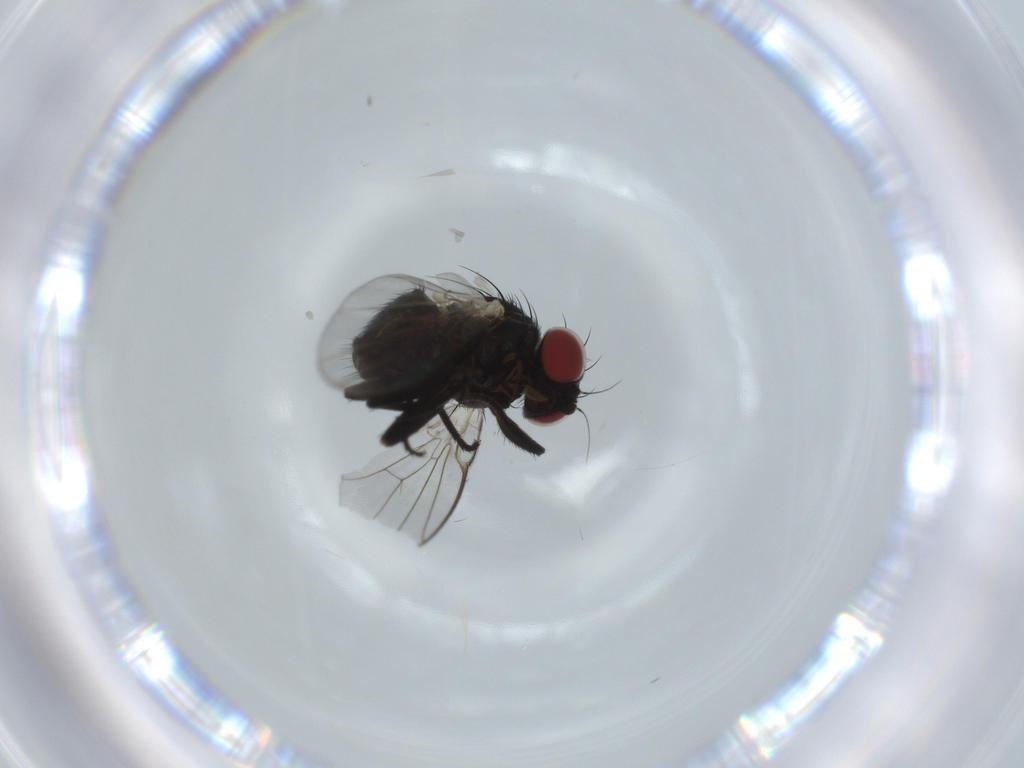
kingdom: Animalia
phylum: Arthropoda
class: Insecta
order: Diptera
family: Agromyzidae
